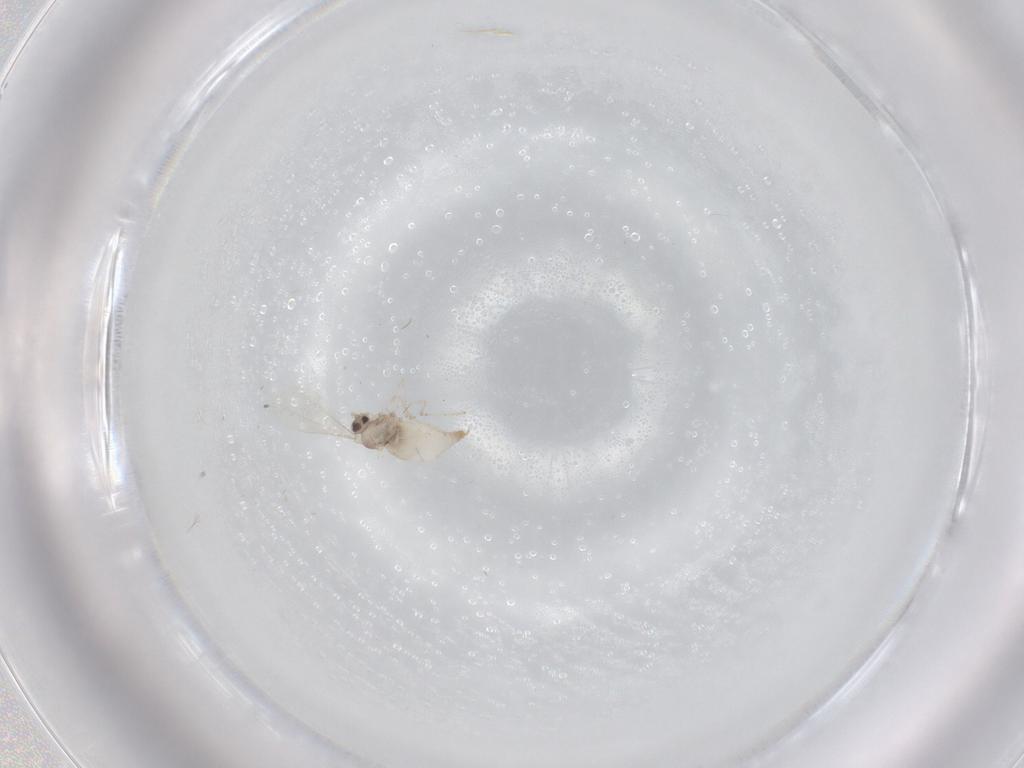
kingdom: Animalia
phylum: Arthropoda
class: Insecta
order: Diptera
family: Cecidomyiidae
